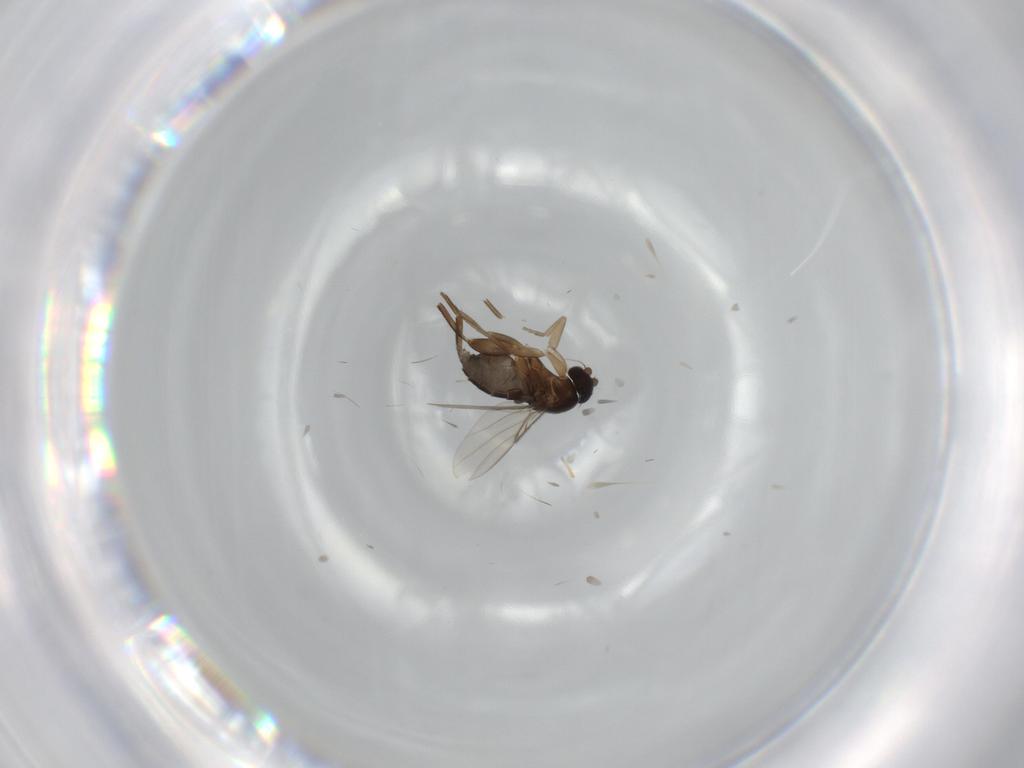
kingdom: Animalia
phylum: Arthropoda
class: Insecta
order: Diptera
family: Phoridae
